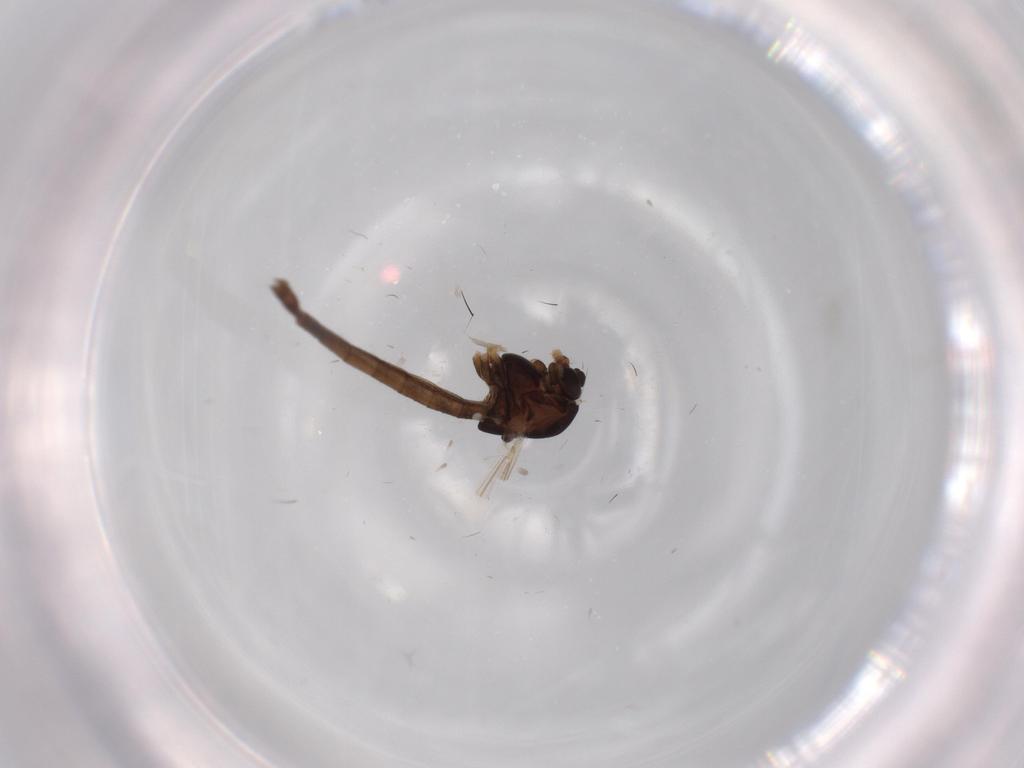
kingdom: Animalia
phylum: Arthropoda
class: Insecta
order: Diptera
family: Chironomidae
